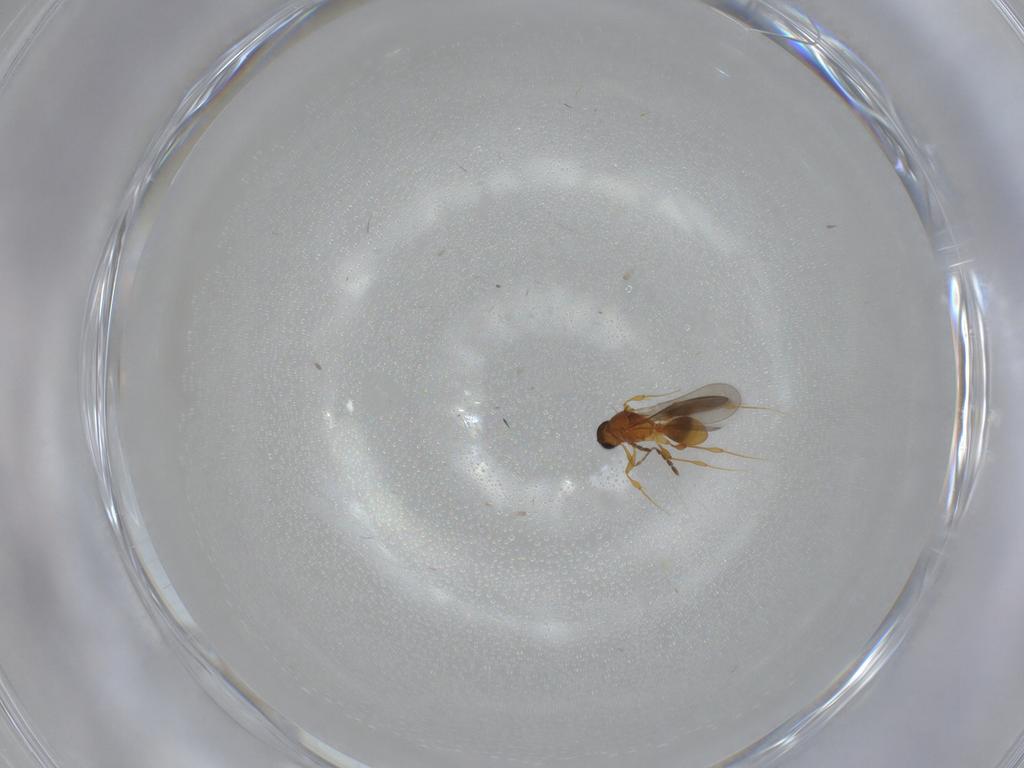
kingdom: Animalia
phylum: Arthropoda
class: Insecta
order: Hymenoptera
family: Platygastridae
